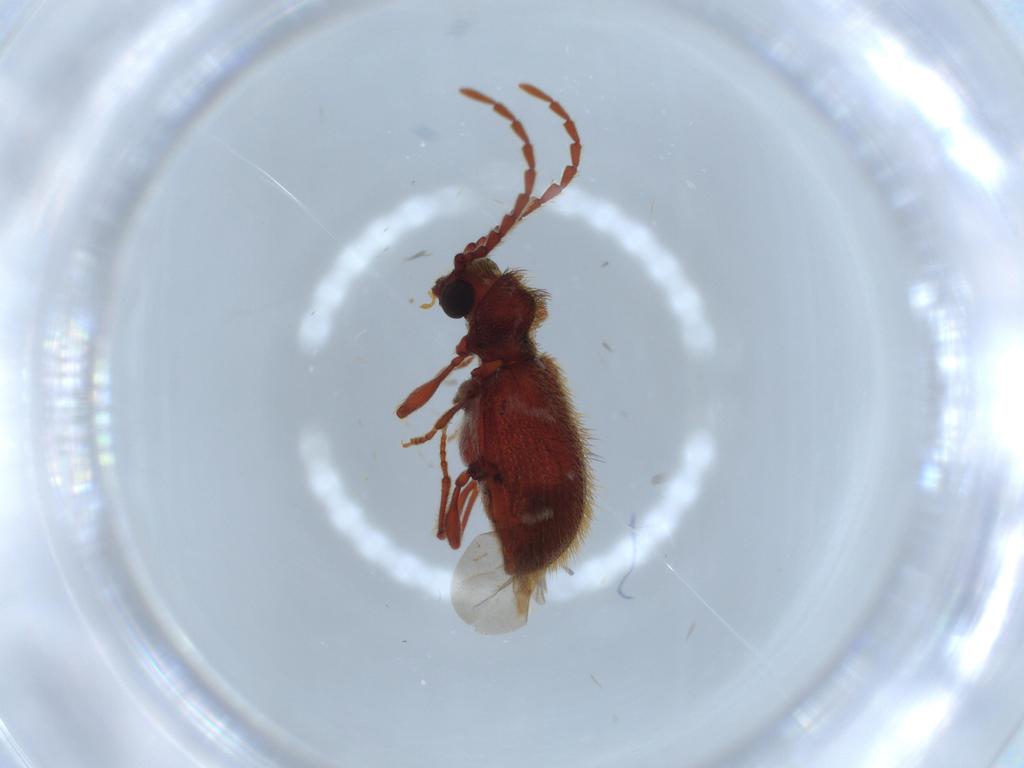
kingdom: Animalia
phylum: Arthropoda
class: Insecta
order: Coleoptera
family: Ptinidae
